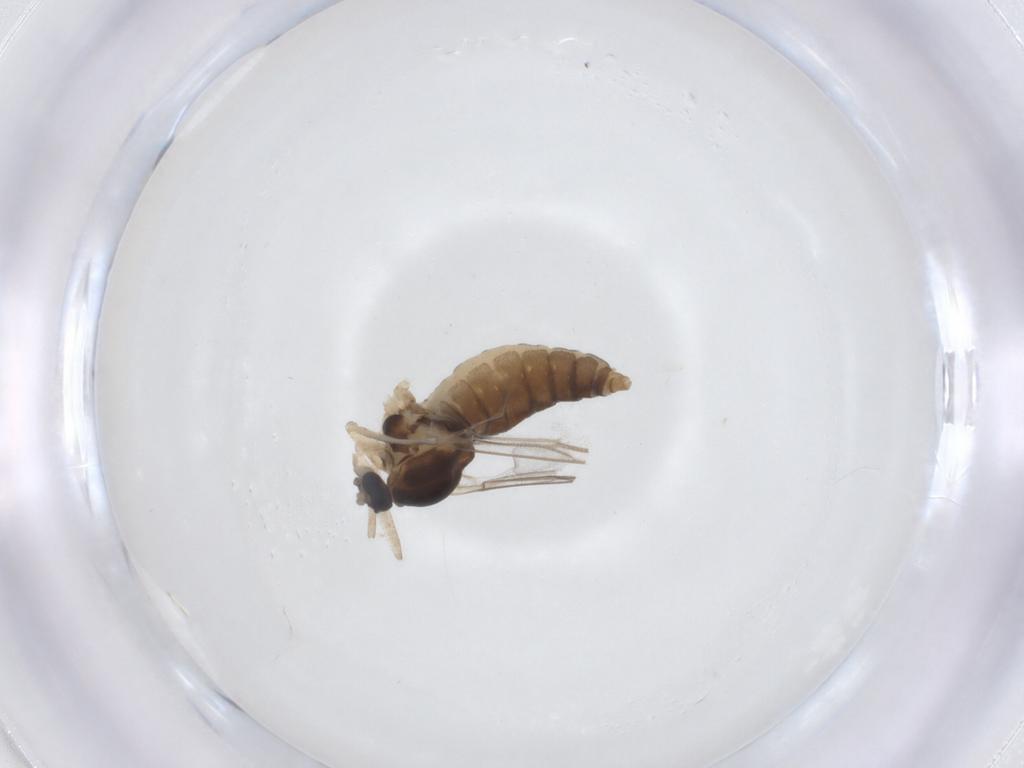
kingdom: Animalia
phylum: Arthropoda
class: Insecta
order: Diptera
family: Cecidomyiidae
